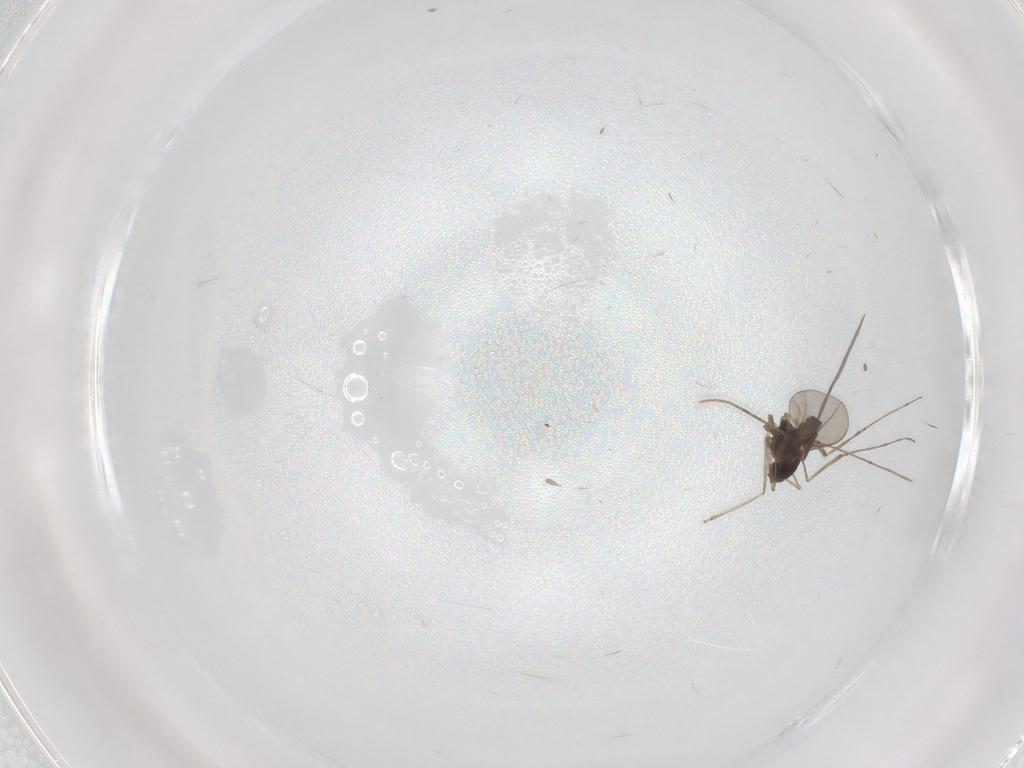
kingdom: Animalia
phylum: Arthropoda
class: Insecta
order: Diptera
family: Cecidomyiidae
